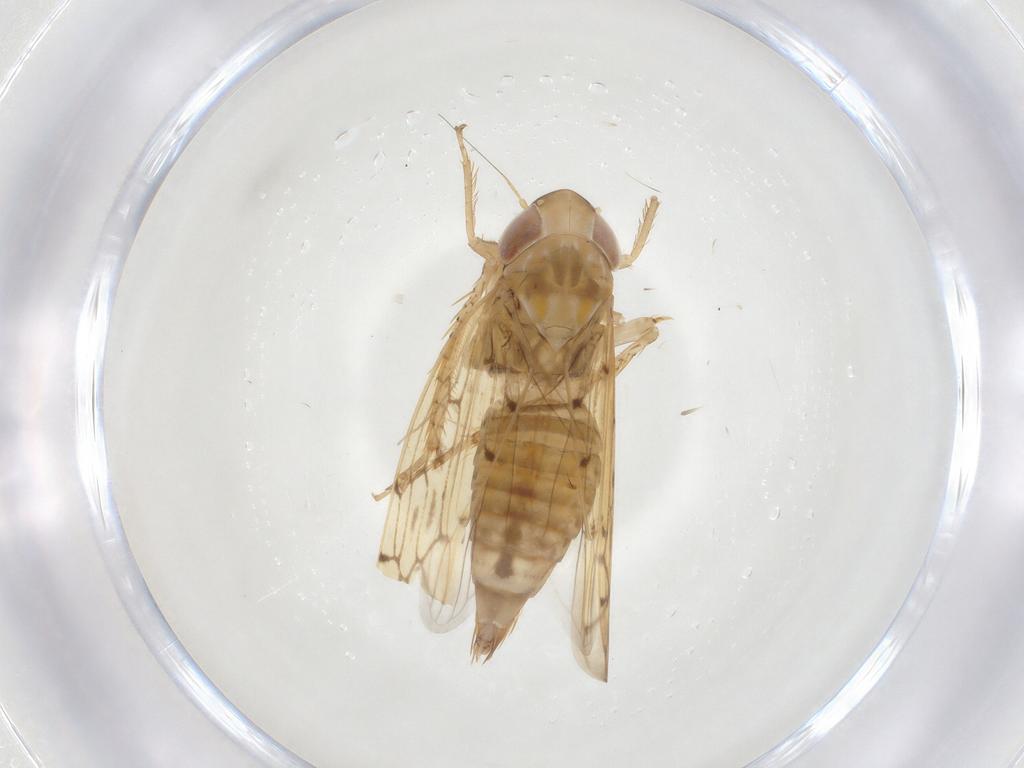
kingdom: Animalia
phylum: Arthropoda
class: Insecta
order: Hemiptera
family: Cicadellidae
